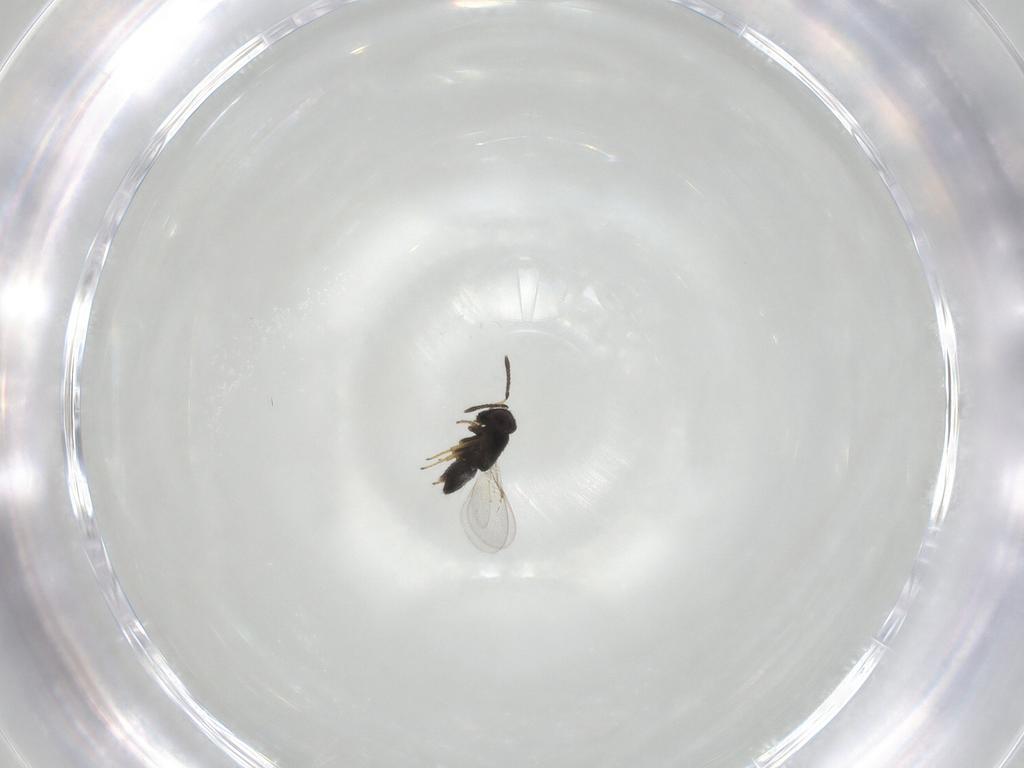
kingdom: Animalia
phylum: Arthropoda
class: Insecta
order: Hymenoptera
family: Encyrtidae
